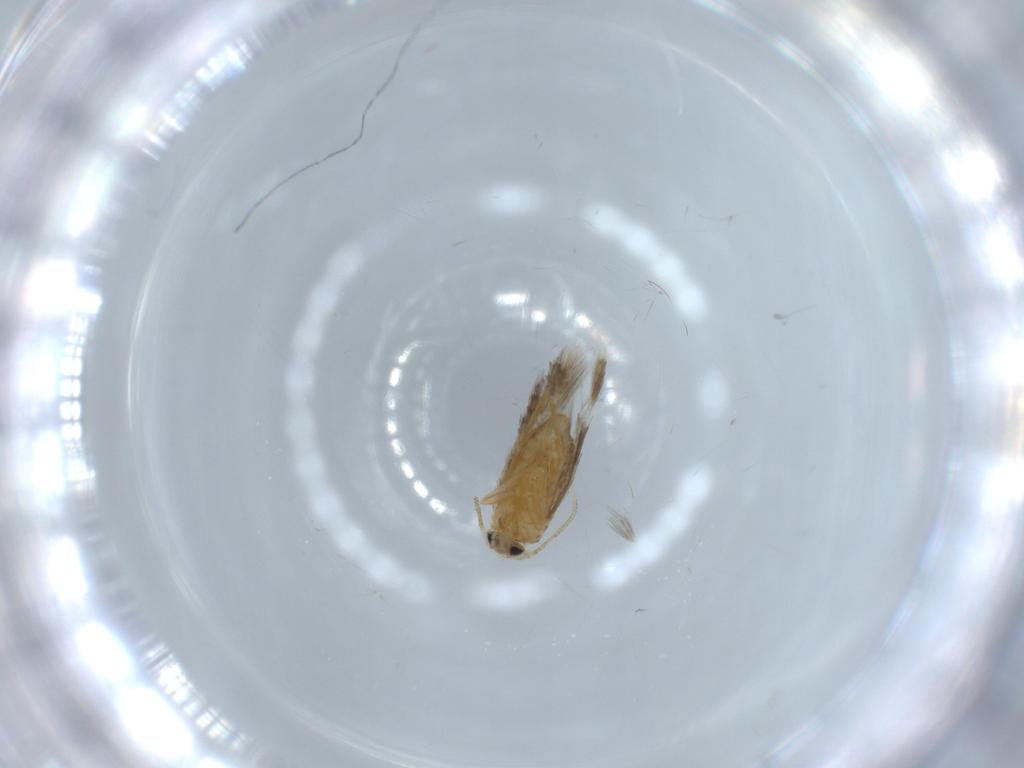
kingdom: Animalia
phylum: Arthropoda
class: Insecta
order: Lepidoptera
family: Nepticulidae
